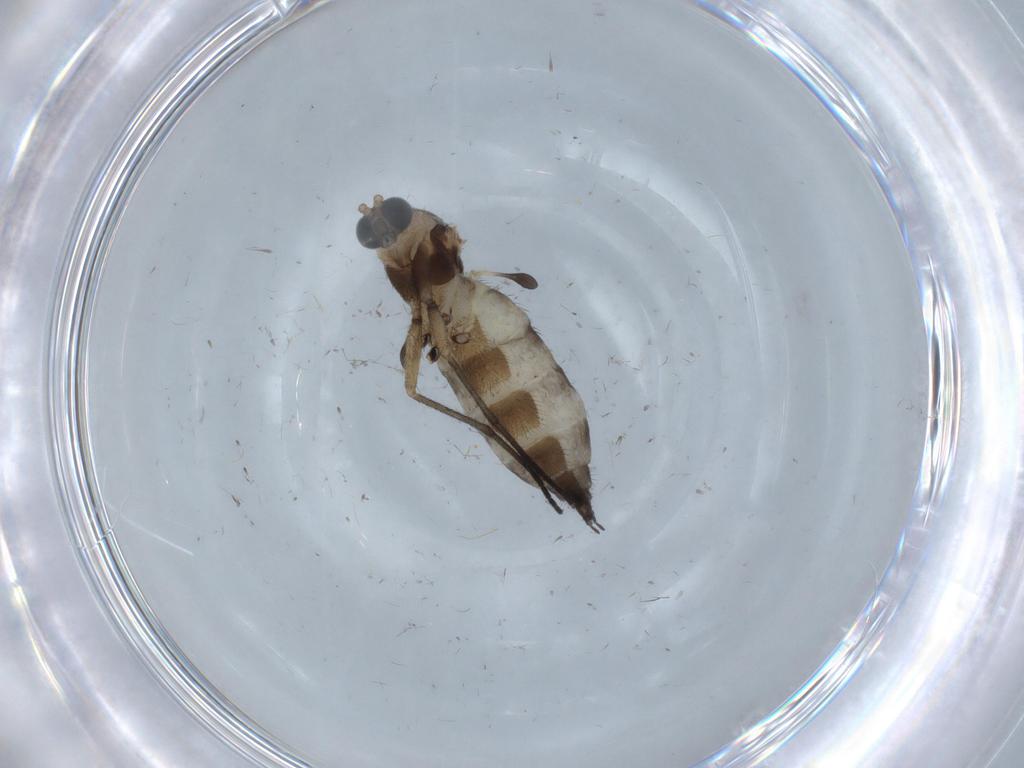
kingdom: Animalia
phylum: Arthropoda
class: Insecta
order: Diptera
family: Sciaridae
